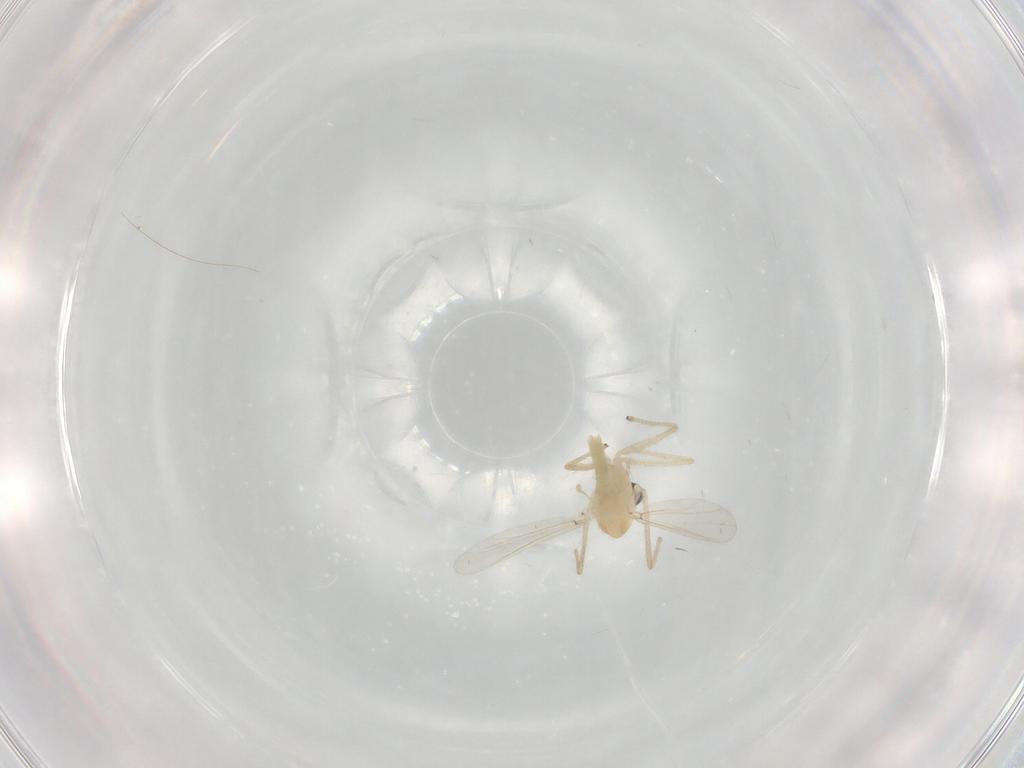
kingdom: Animalia
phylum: Arthropoda
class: Insecta
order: Diptera
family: Chironomidae
